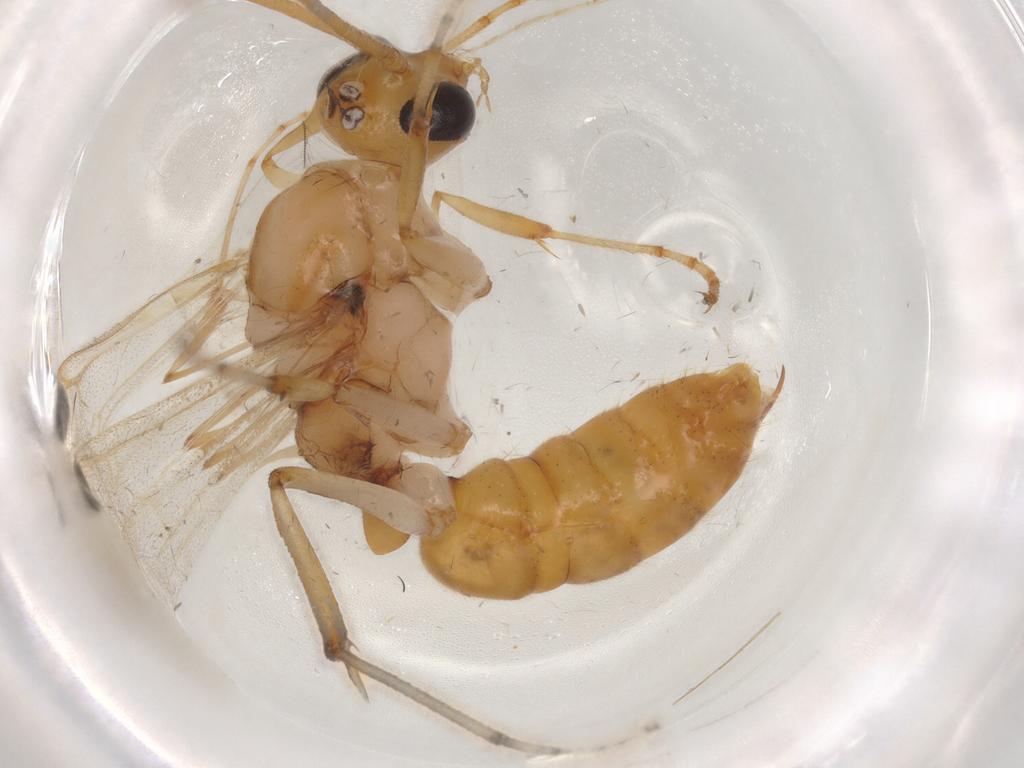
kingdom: Animalia
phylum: Arthropoda
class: Insecta
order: Hymenoptera
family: Formicidae
